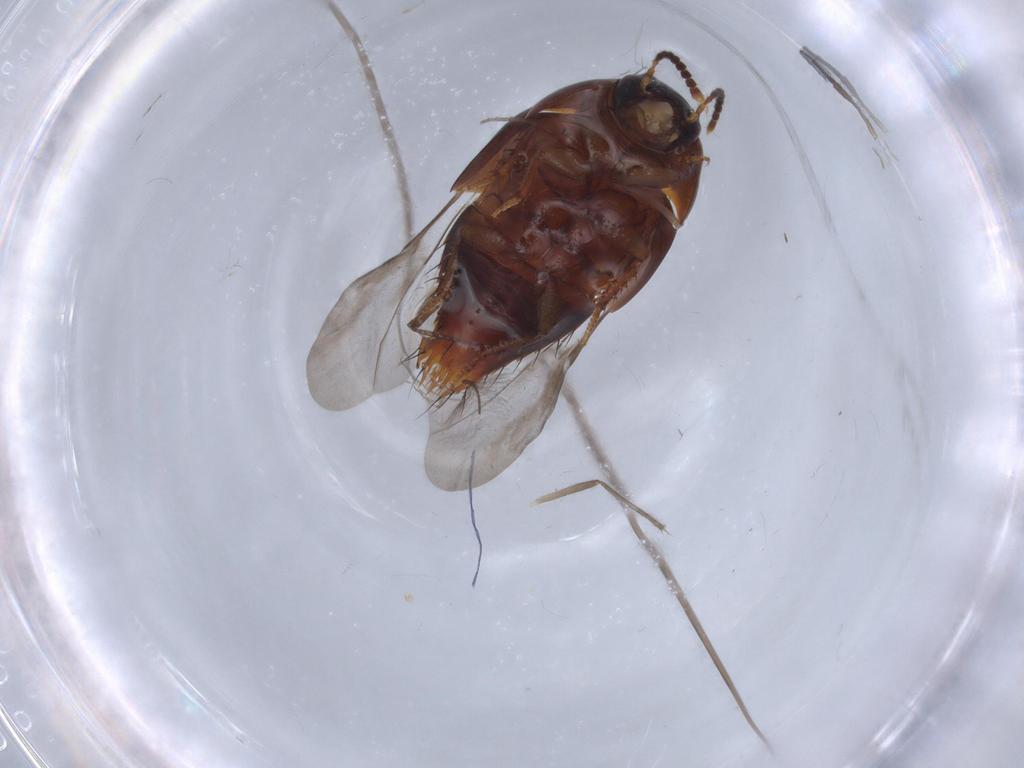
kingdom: Animalia
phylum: Arthropoda
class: Insecta
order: Coleoptera
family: Staphylinidae
